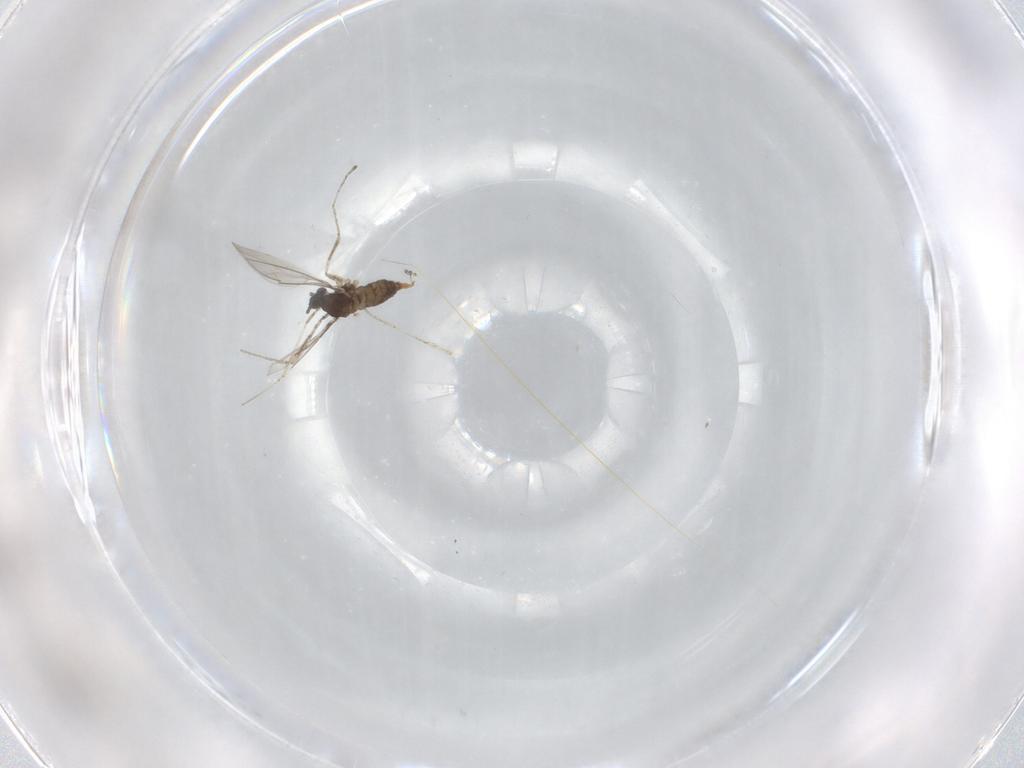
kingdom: Animalia
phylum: Arthropoda
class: Insecta
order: Diptera
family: Cecidomyiidae
